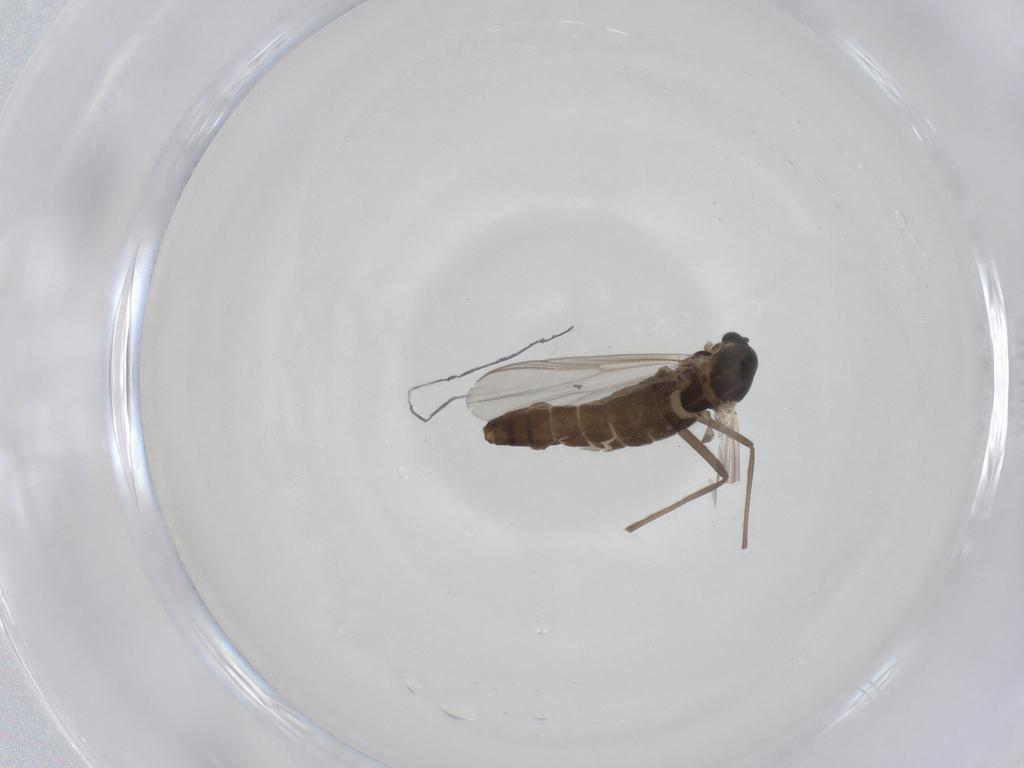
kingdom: Animalia
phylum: Arthropoda
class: Insecta
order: Diptera
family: Chironomidae
